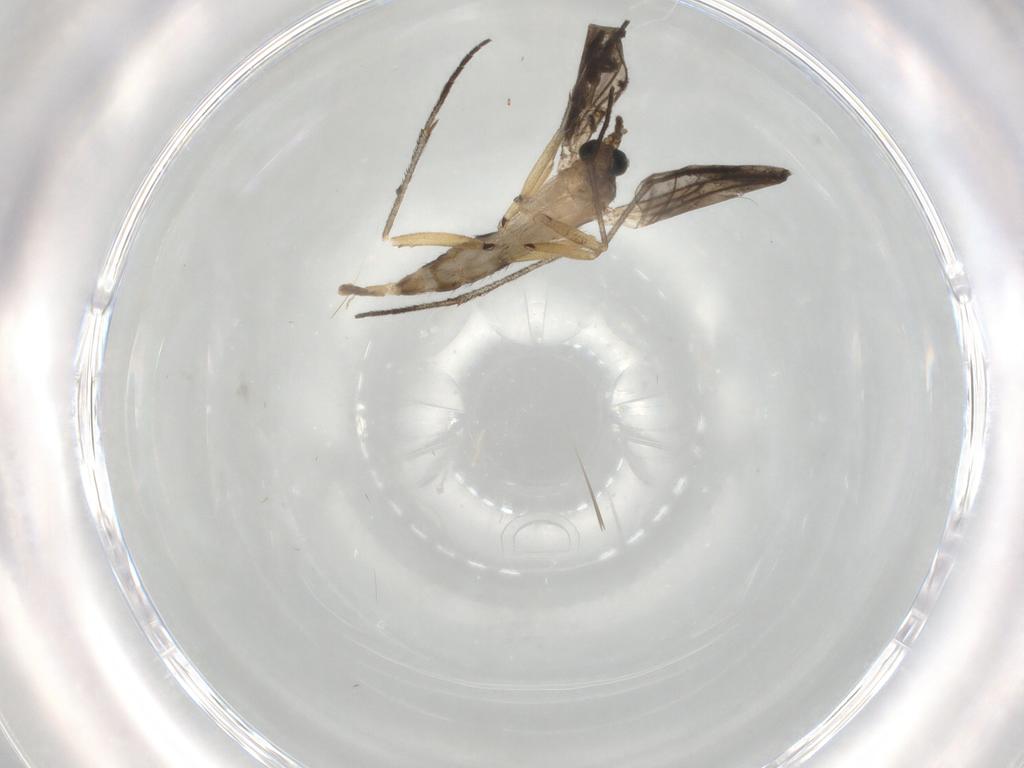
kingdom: Animalia
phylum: Arthropoda
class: Insecta
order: Diptera
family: Sciaridae
